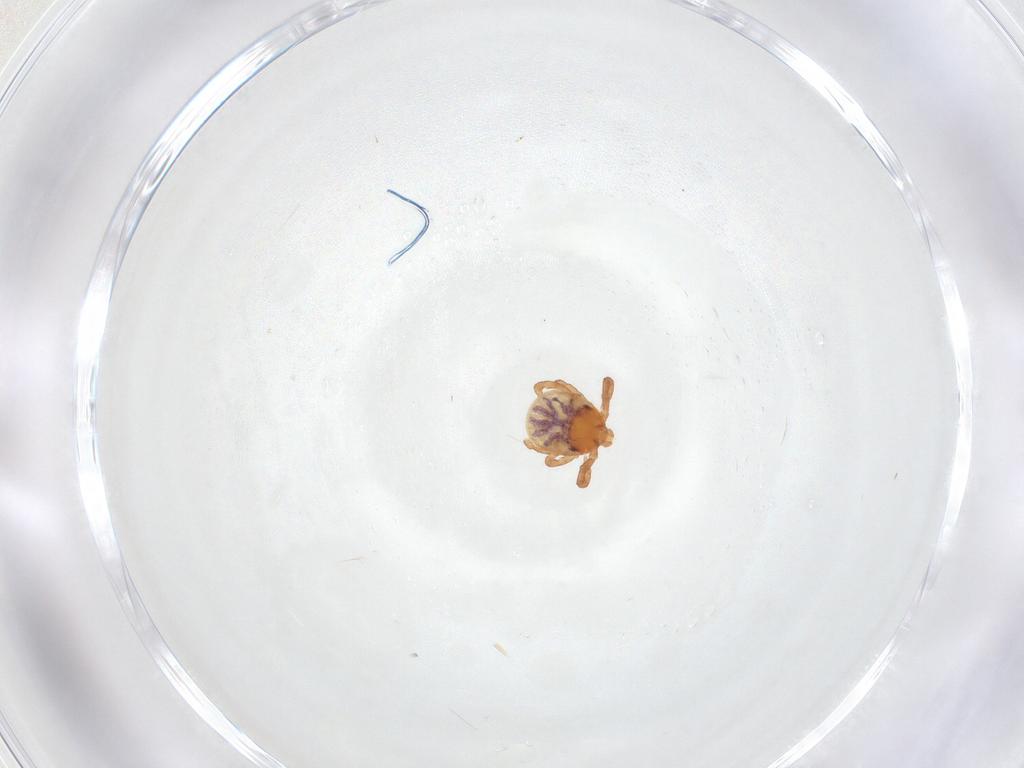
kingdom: Animalia
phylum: Arthropoda
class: Arachnida
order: Ixodida
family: Ixodidae
